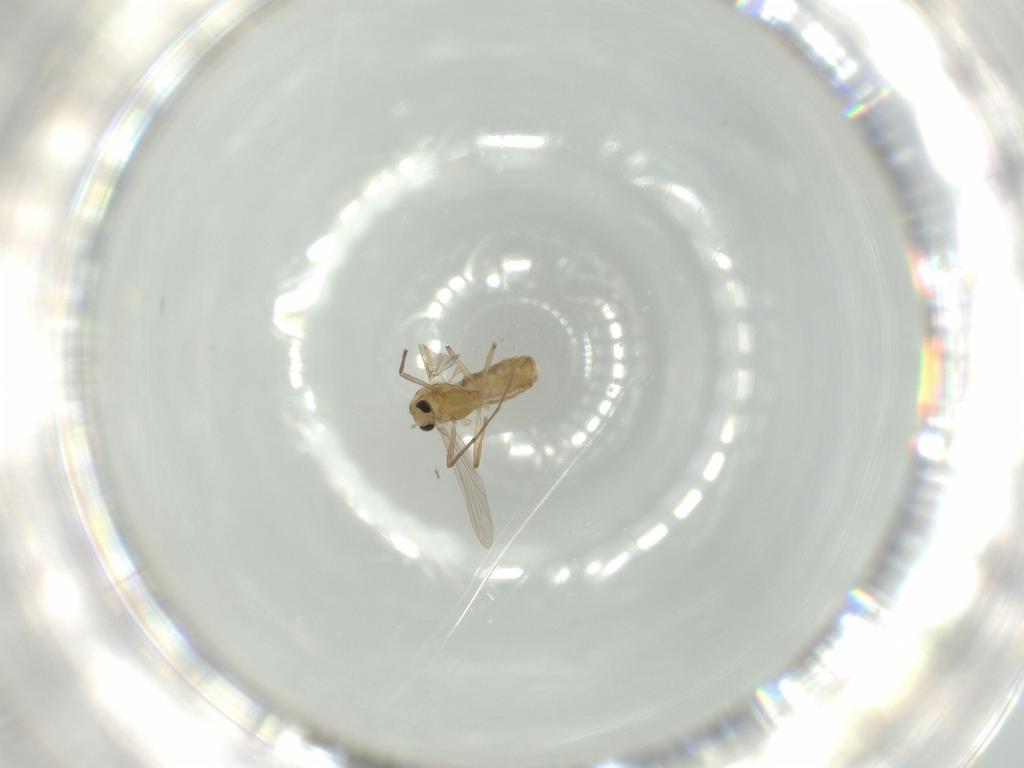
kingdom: Animalia
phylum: Arthropoda
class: Insecta
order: Diptera
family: Chironomidae
